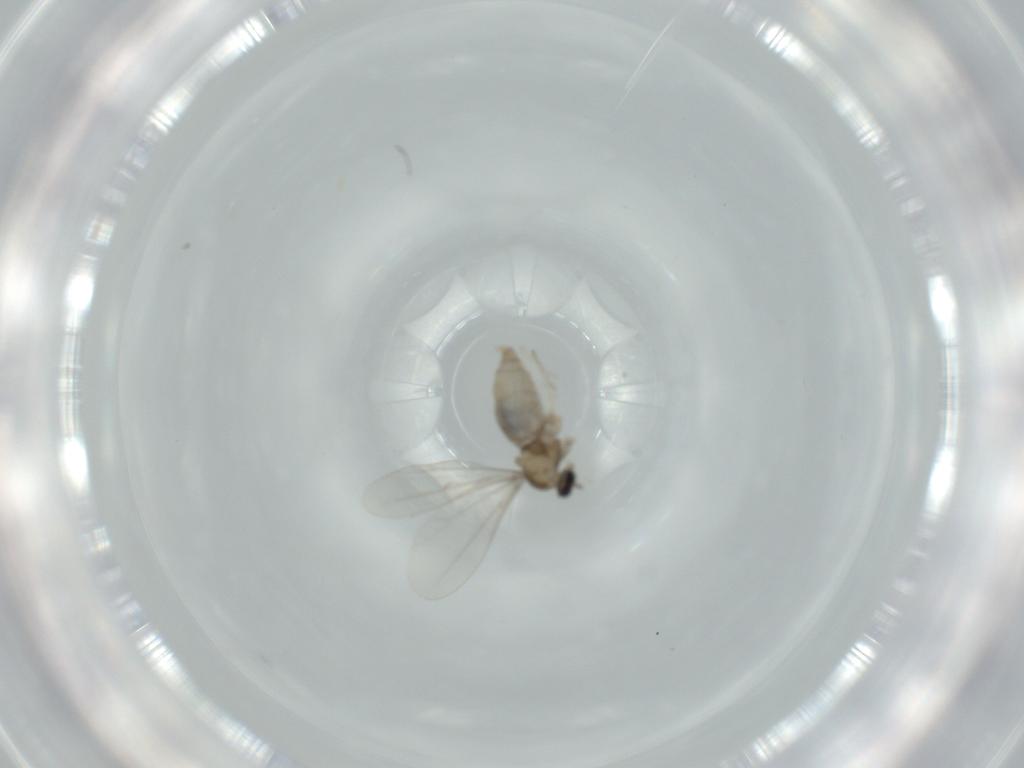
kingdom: Animalia
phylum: Arthropoda
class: Insecta
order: Diptera
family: Cecidomyiidae
